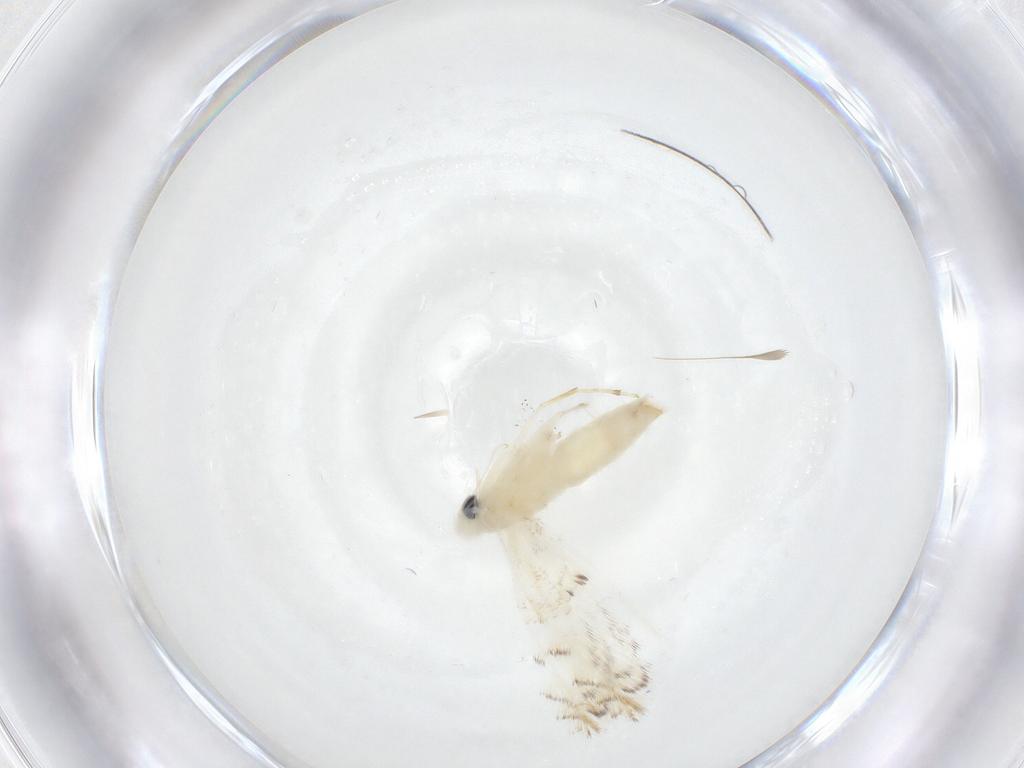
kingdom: Animalia
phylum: Arthropoda
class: Insecta
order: Lepidoptera
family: Gracillariidae
